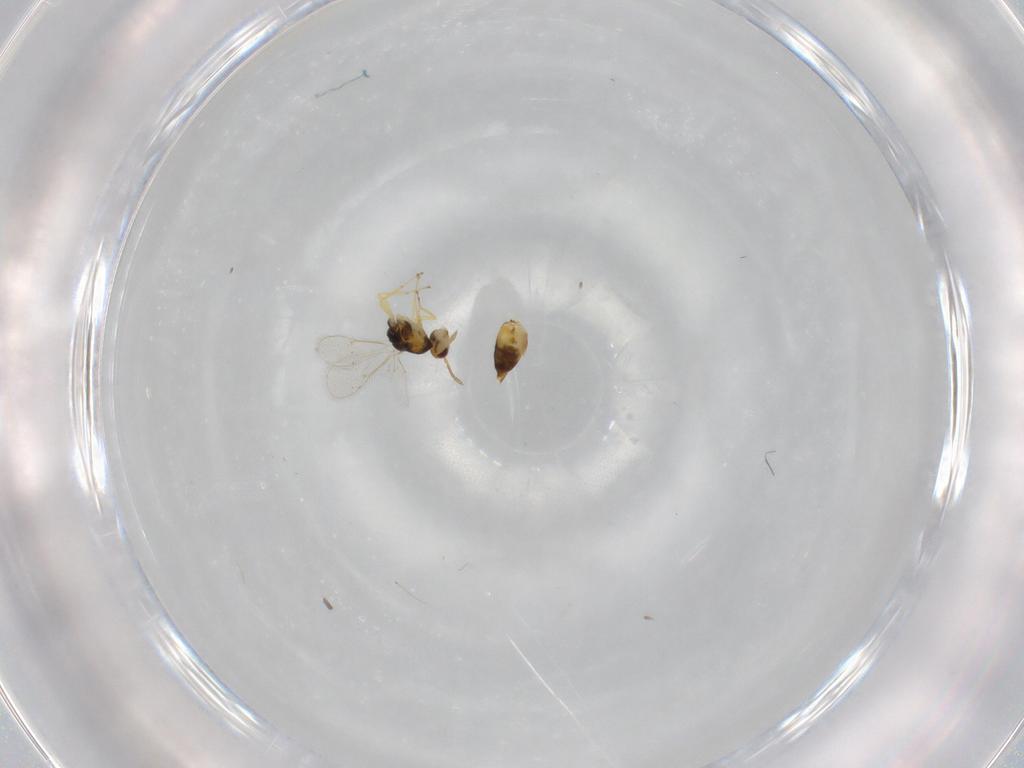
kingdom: Animalia
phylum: Arthropoda
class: Insecta
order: Hymenoptera
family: Eulophidae
